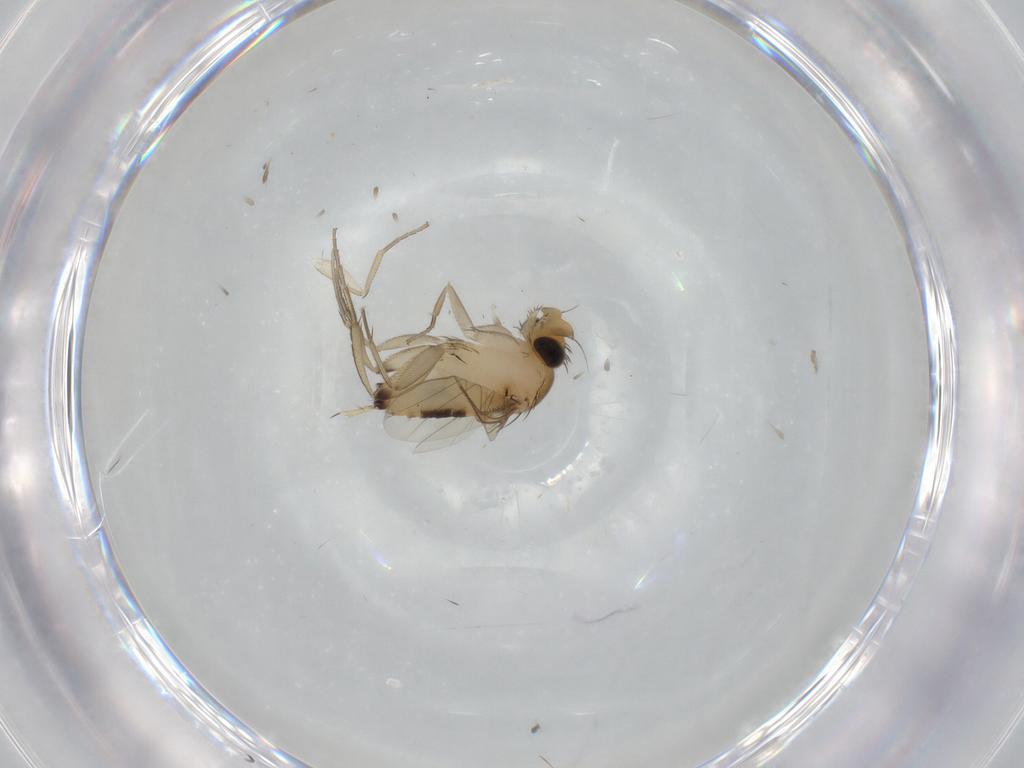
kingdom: Animalia
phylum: Arthropoda
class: Insecta
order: Diptera
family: Phoridae
